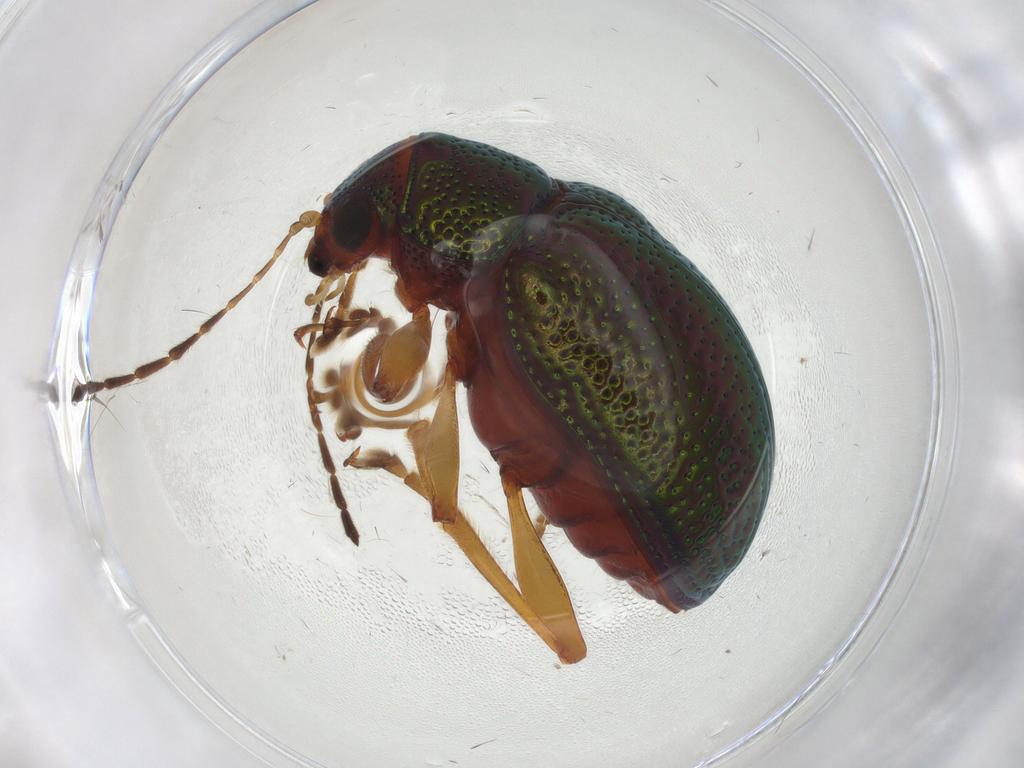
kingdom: Animalia
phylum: Arthropoda
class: Insecta
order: Coleoptera
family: Chrysomelidae
